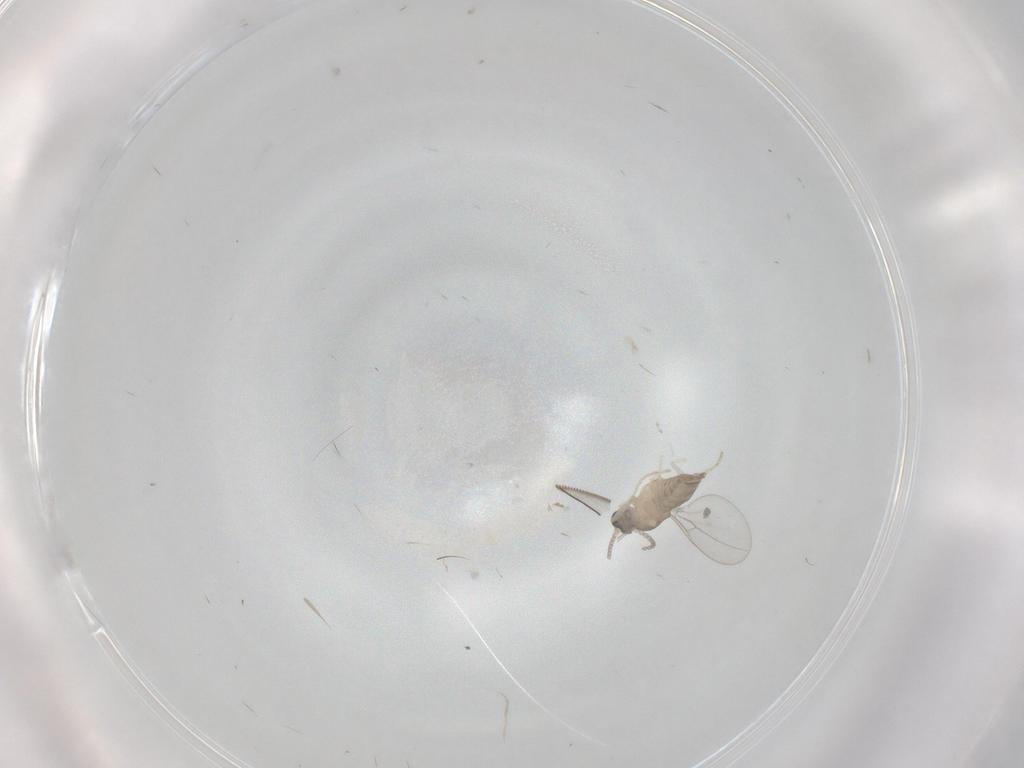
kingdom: Animalia
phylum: Arthropoda
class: Insecta
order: Diptera
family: Cecidomyiidae
